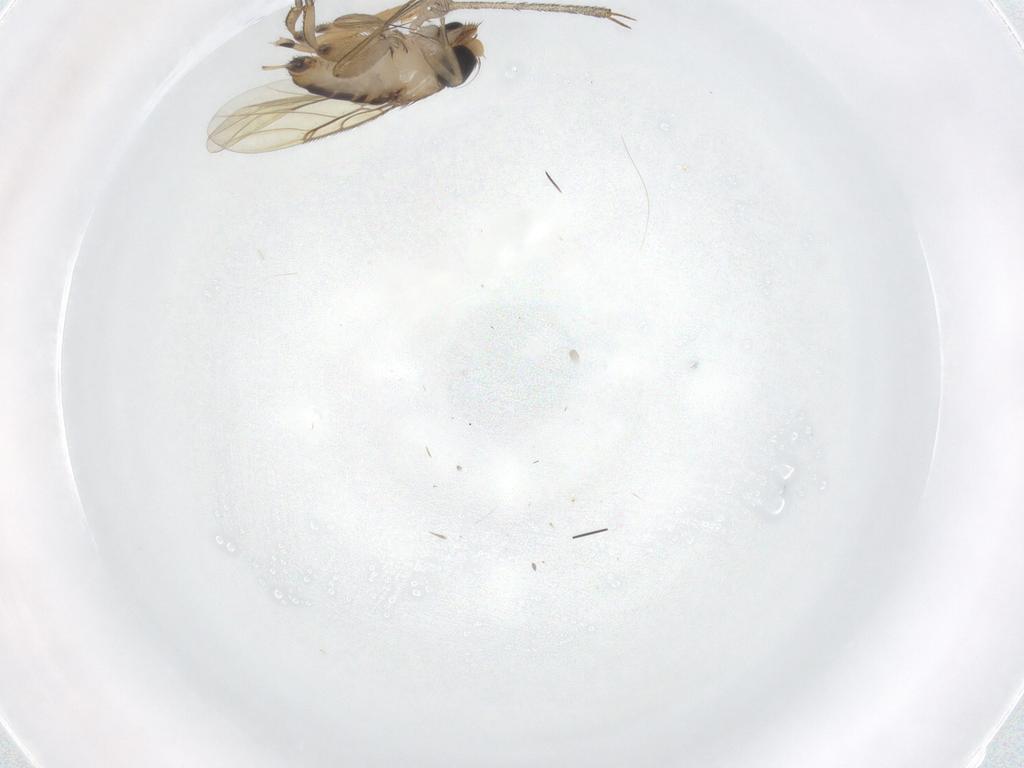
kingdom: Animalia
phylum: Arthropoda
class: Insecta
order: Diptera
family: Phoridae
